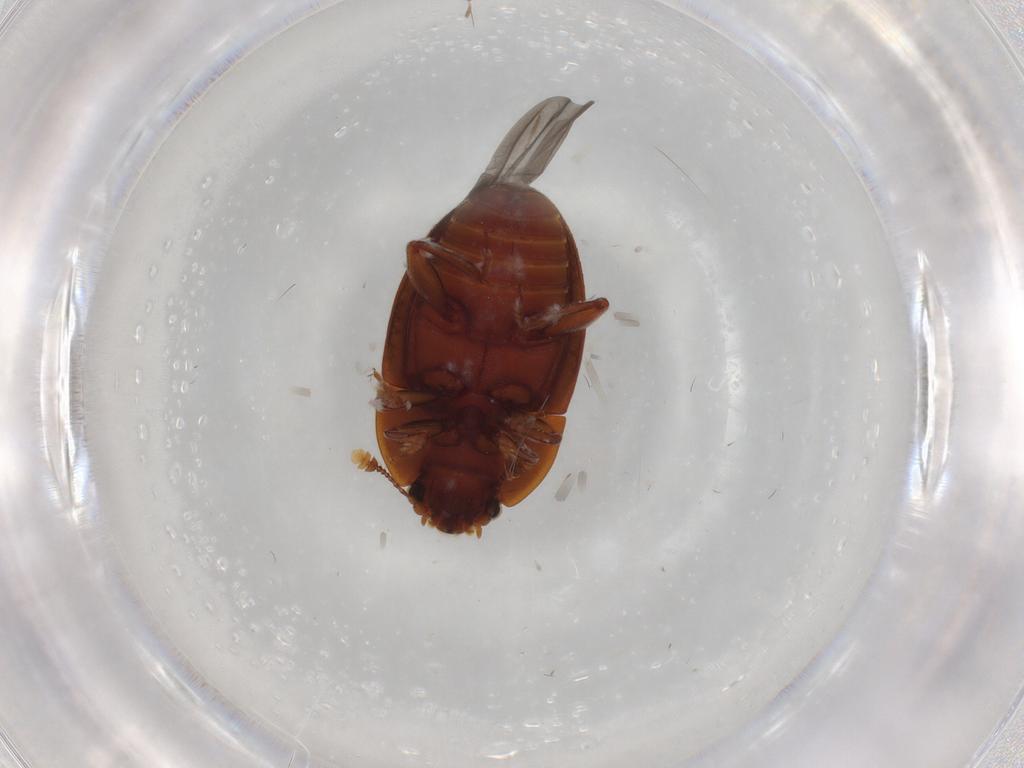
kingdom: Animalia
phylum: Arthropoda
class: Insecta
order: Coleoptera
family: Nitidulidae
